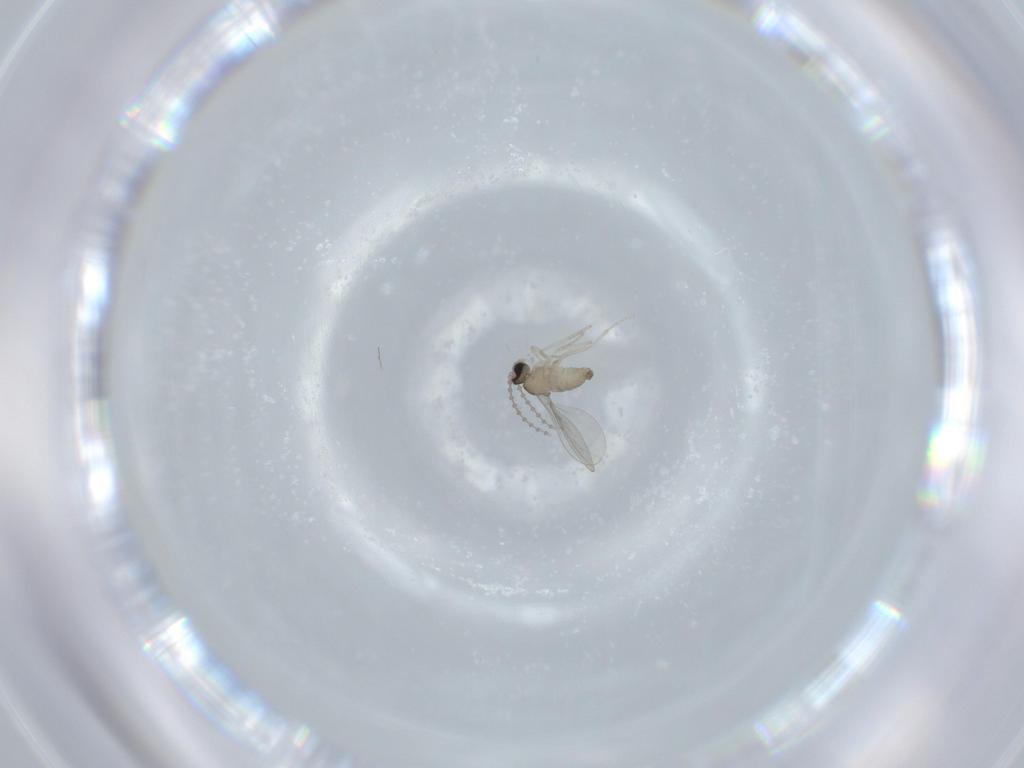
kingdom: Animalia
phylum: Arthropoda
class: Insecta
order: Diptera
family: Cecidomyiidae
